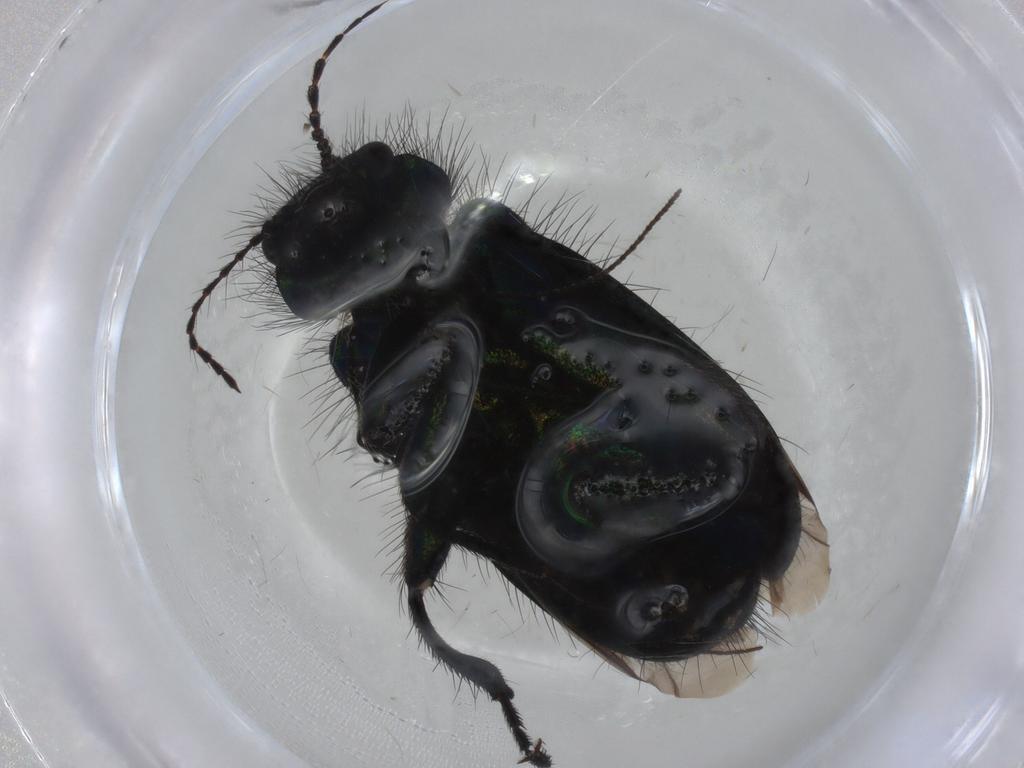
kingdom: Animalia
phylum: Arthropoda
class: Insecta
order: Coleoptera
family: Melyridae
